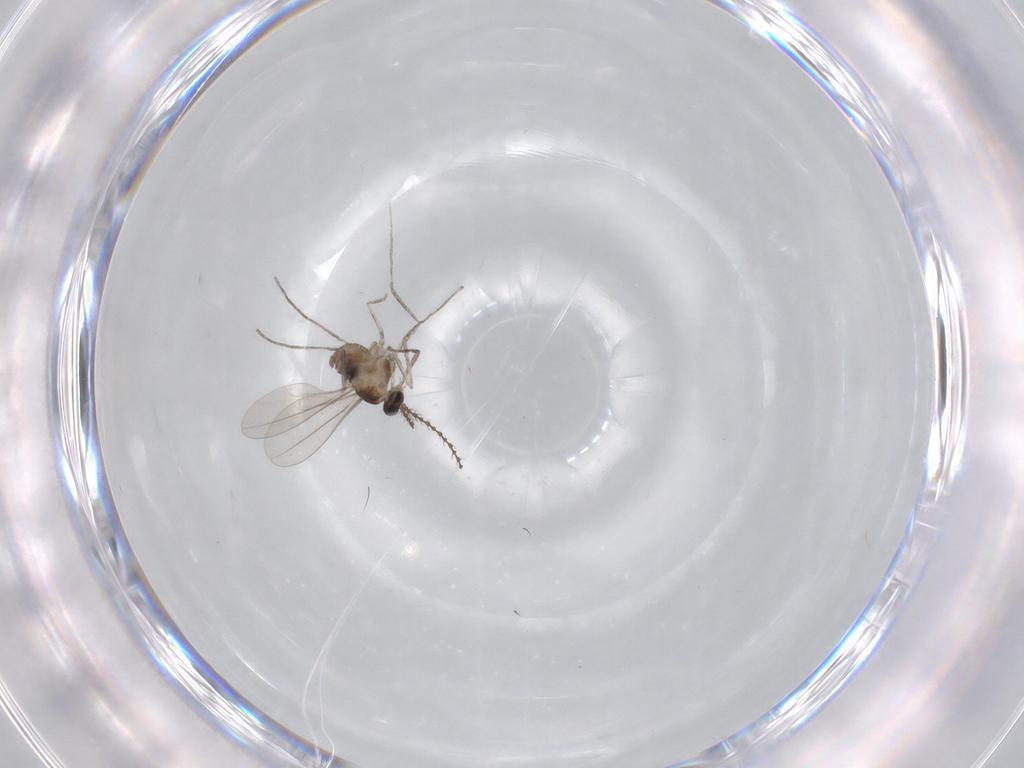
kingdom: Animalia
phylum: Arthropoda
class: Insecta
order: Diptera
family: Cecidomyiidae
